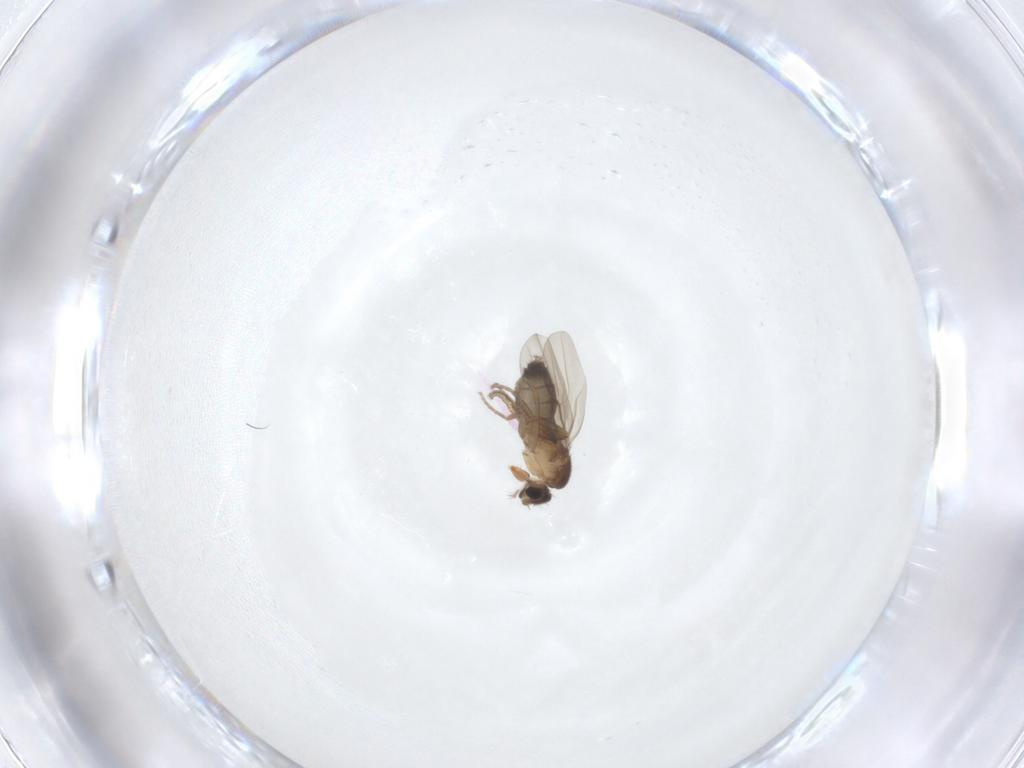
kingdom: Animalia
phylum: Arthropoda
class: Insecta
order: Diptera
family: Phoridae
